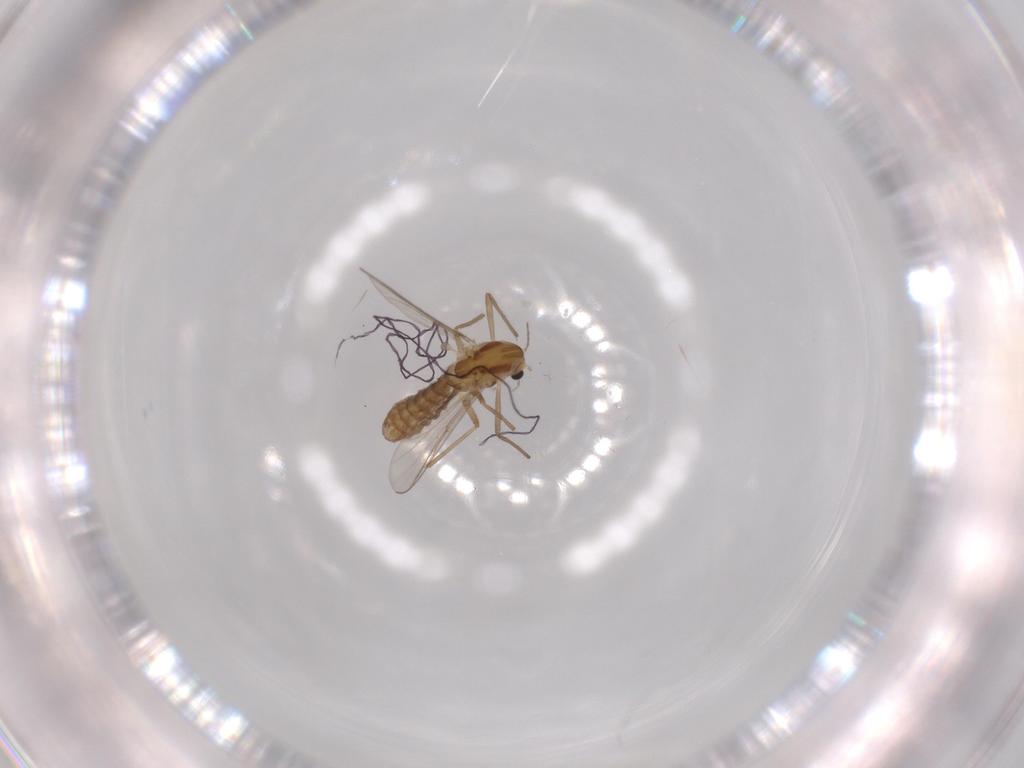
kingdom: Animalia
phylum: Arthropoda
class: Insecta
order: Diptera
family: Chironomidae
